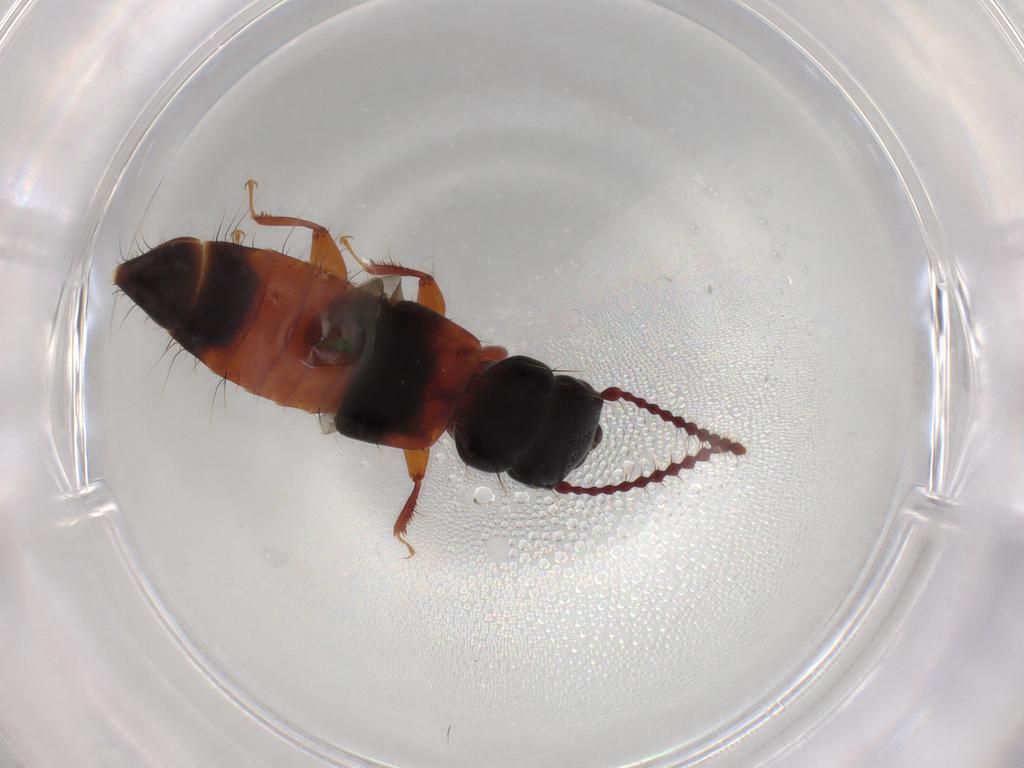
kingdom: Animalia
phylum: Arthropoda
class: Insecta
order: Coleoptera
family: Staphylinidae
